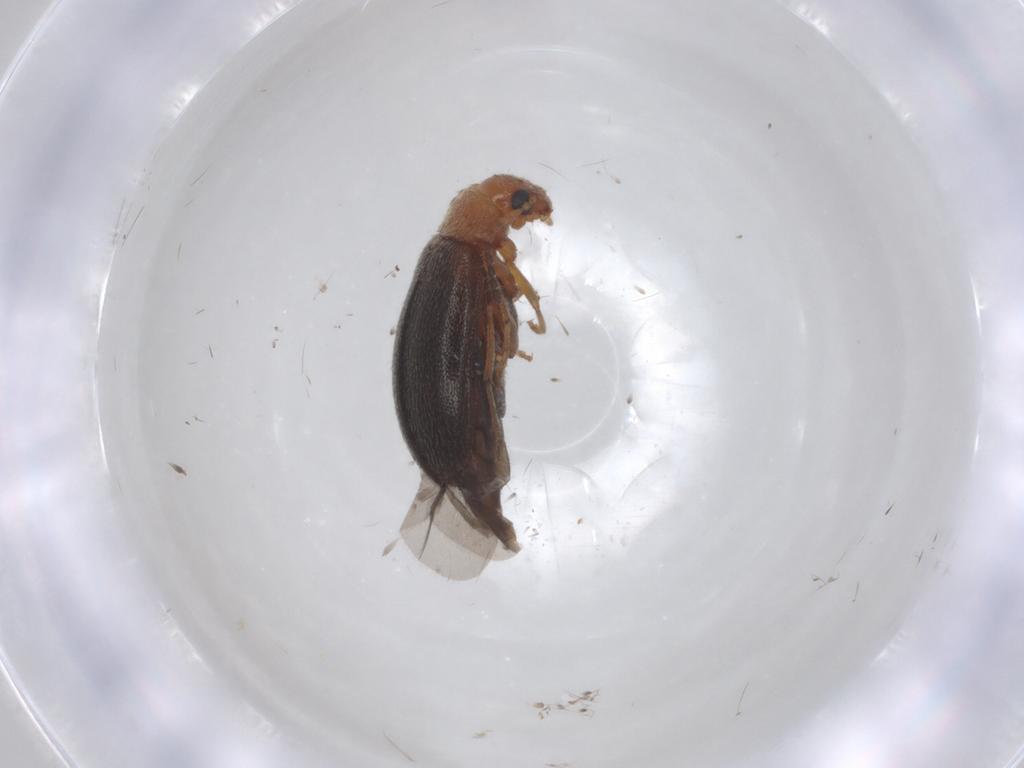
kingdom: Animalia
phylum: Arthropoda
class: Insecta
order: Coleoptera
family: Melandryidae
